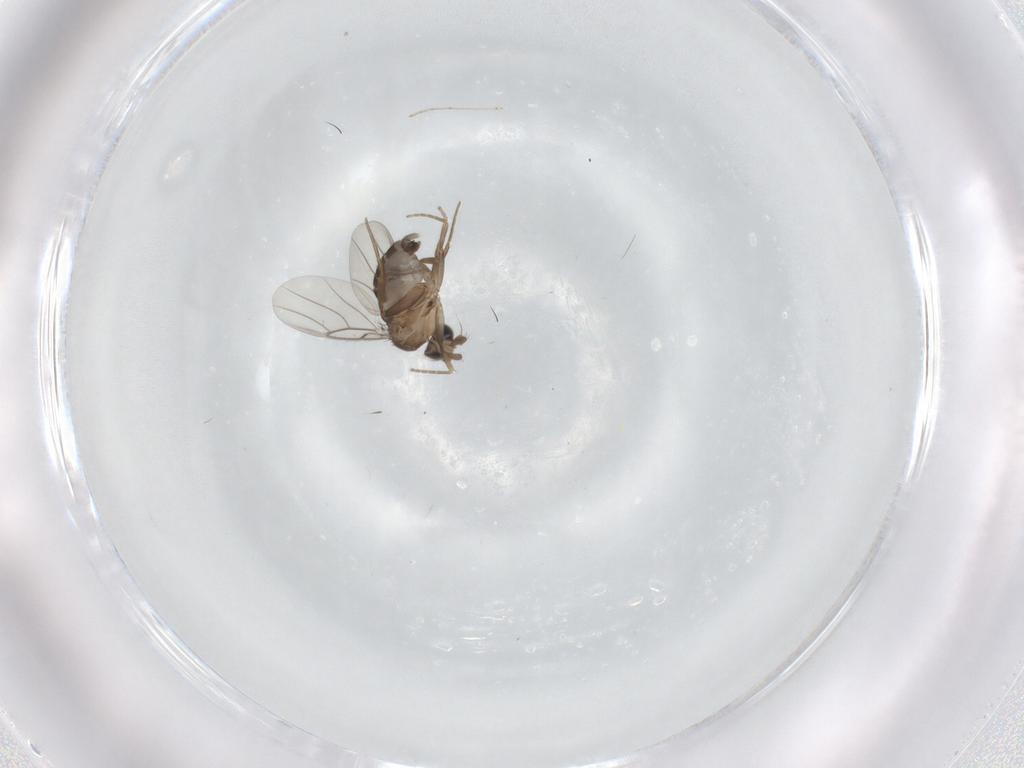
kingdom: Animalia
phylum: Arthropoda
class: Insecta
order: Diptera
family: Phoridae
